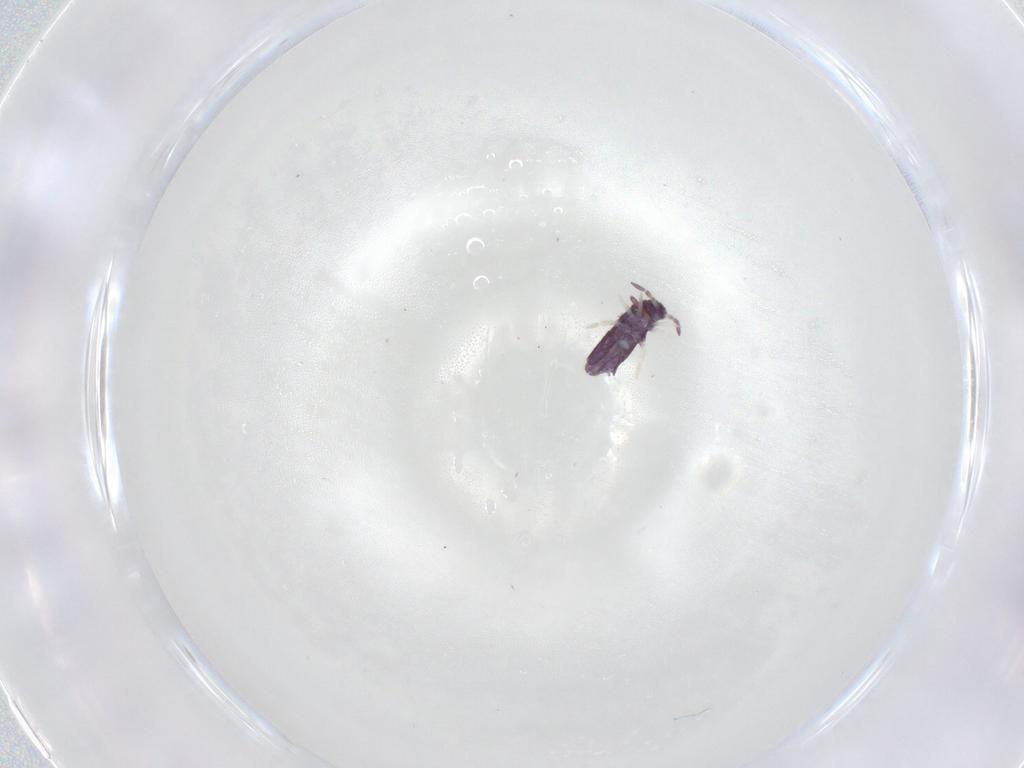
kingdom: Animalia
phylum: Arthropoda
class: Collembola
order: Entomobryomorpha
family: Entomobryidae
